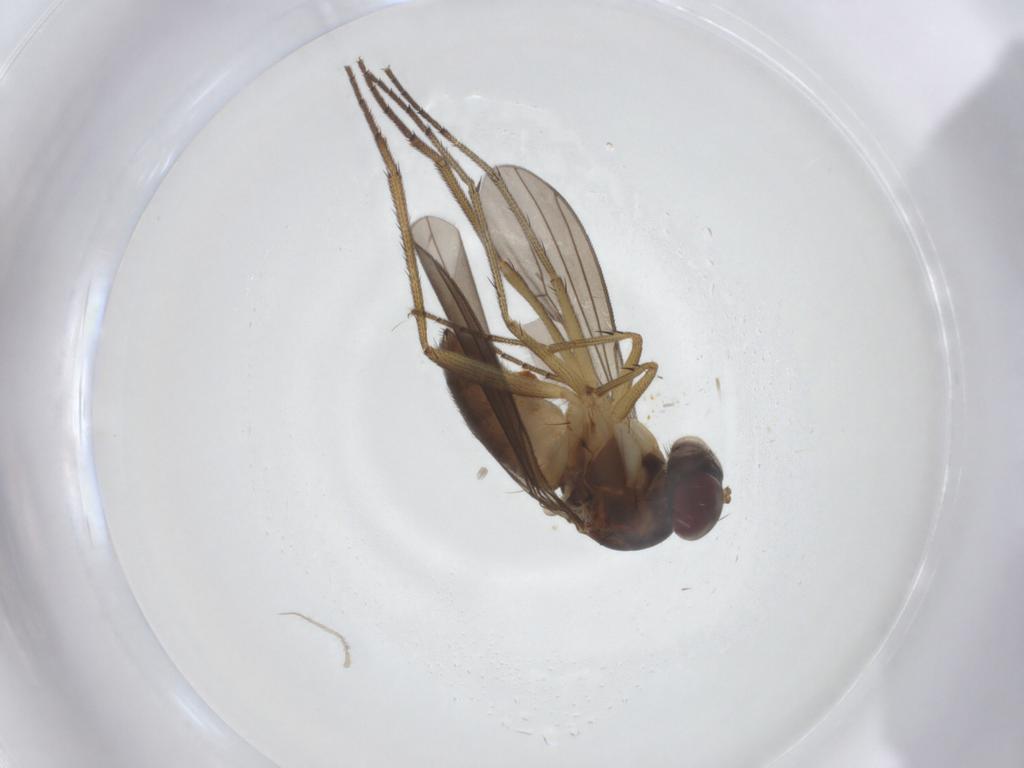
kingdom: Animalia
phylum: Arthropoda
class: Insecta
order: Diptera
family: Dolichopodidae
